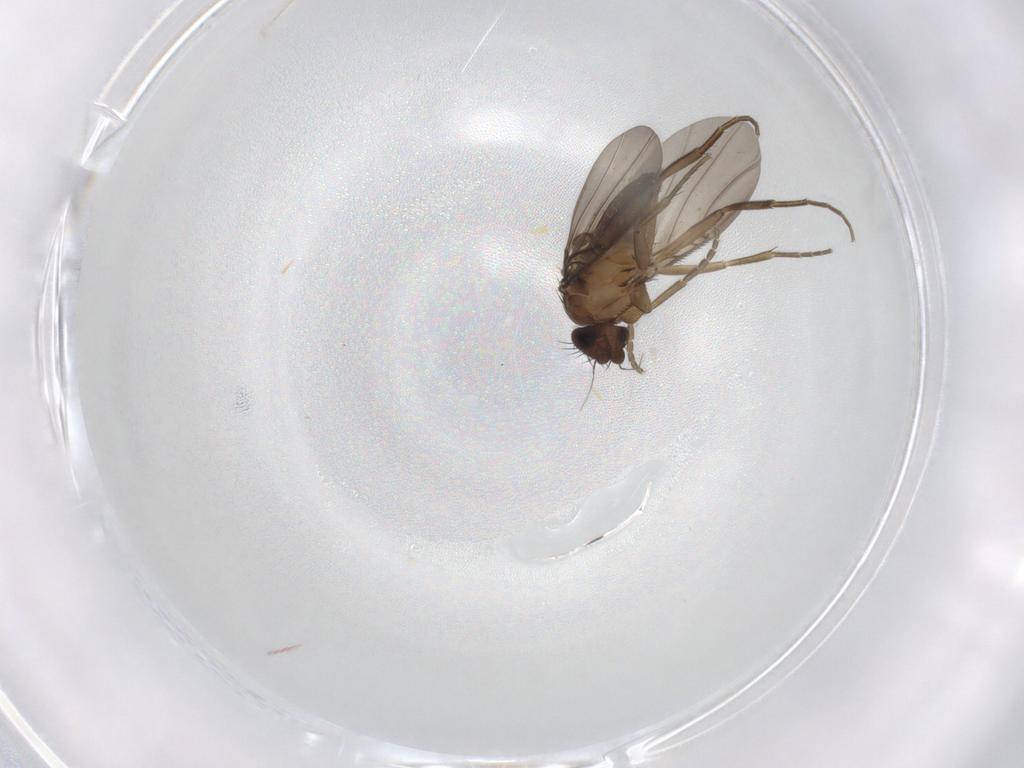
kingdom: Animalia
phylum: Arthropoda
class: Insecta
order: Diptera
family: Phoridae
